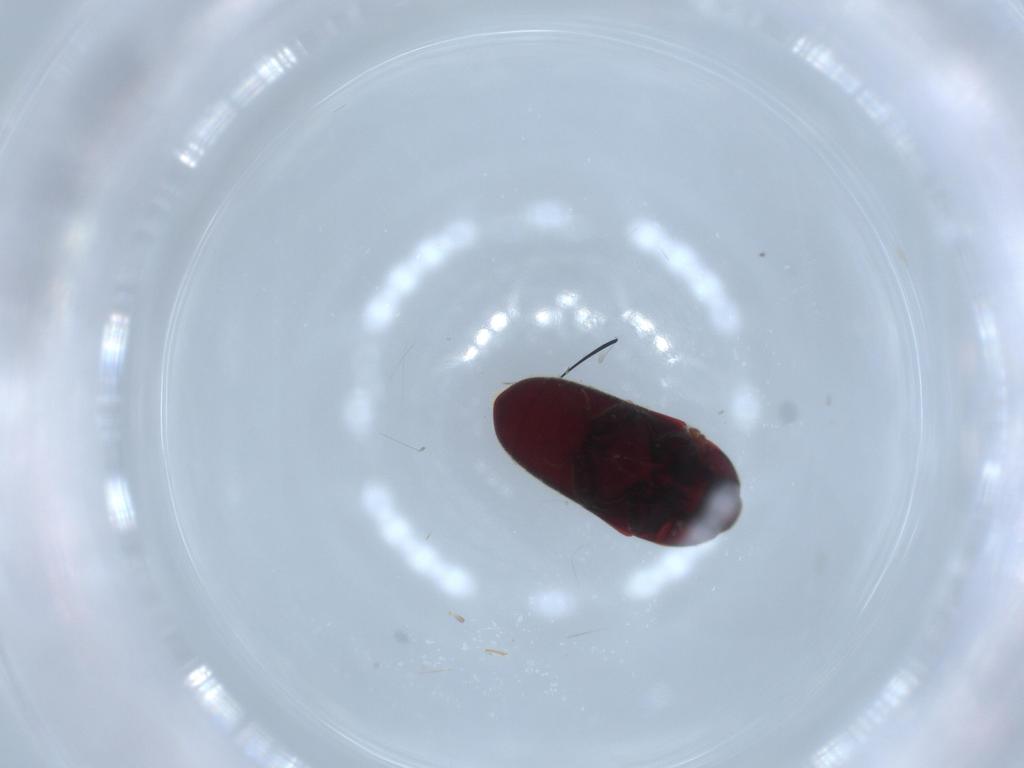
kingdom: Animalia
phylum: Arthropoda
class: Insecta
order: Coleoptera
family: Throscidae
